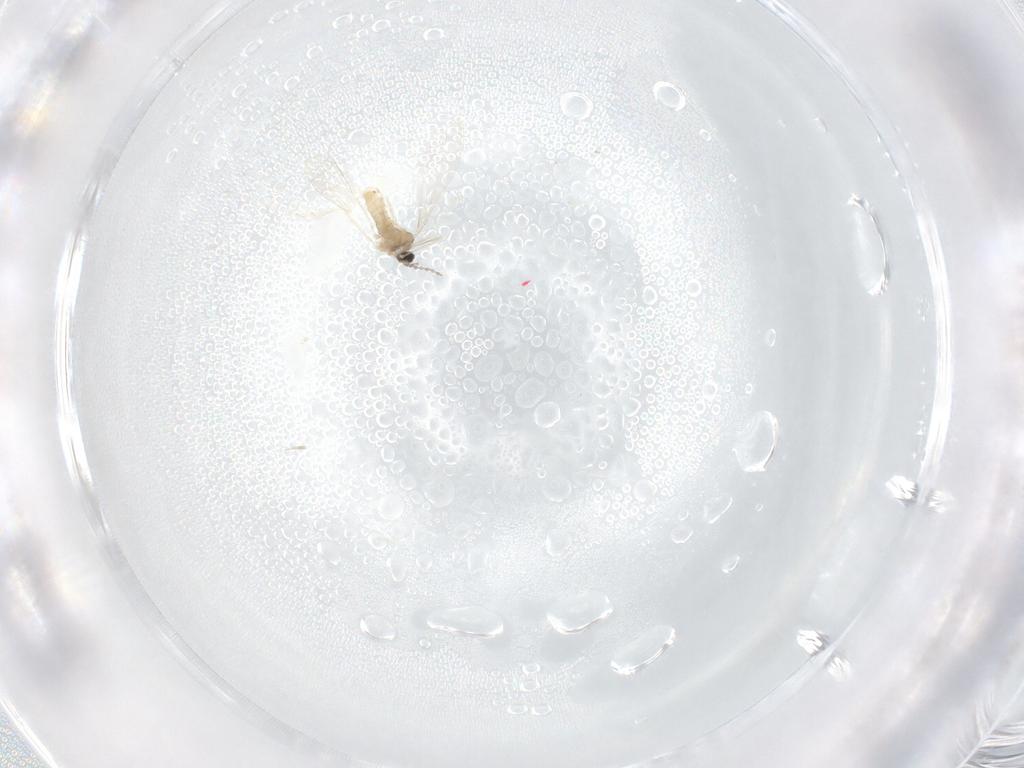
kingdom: Animalia
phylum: Arthropoda
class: Insecta
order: Diptera
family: Cecidomyiidae
